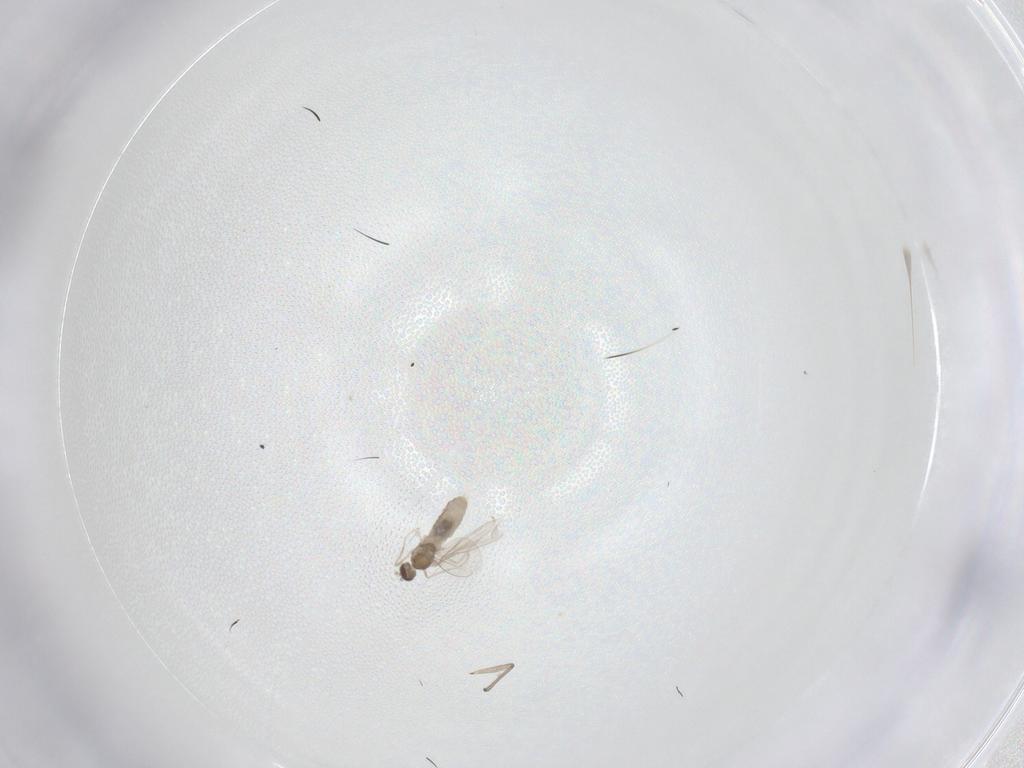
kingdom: Animalia
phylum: Arthropoda
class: Insecta
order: Diptera
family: Cecidomyiidae
